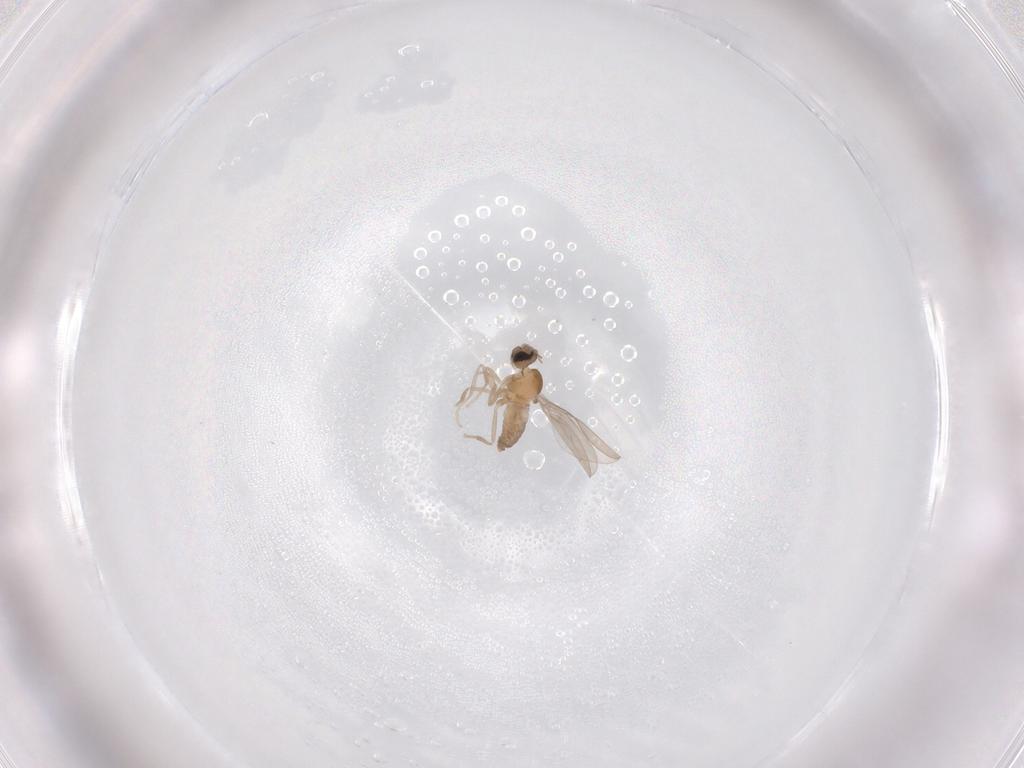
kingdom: Animalia
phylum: Arthropoda
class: Insecta
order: Diptera
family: Cecidomyiidae
